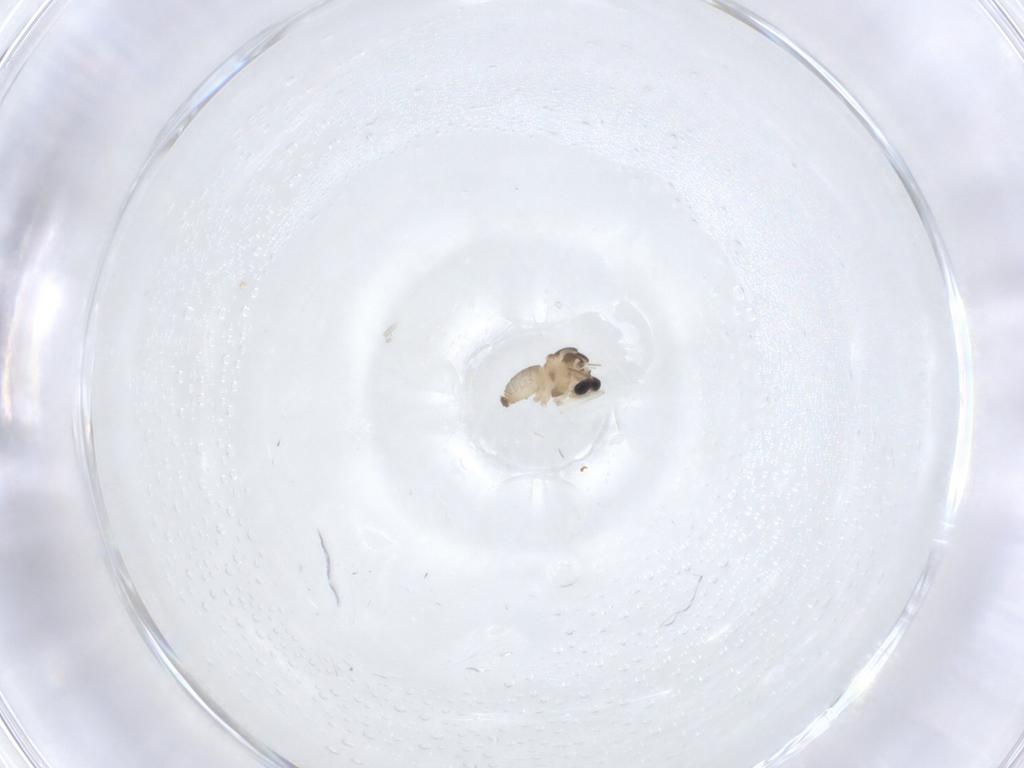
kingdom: Animalia
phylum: Arthropoda
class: Insecta
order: Diptera
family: Cecidomyiidae
